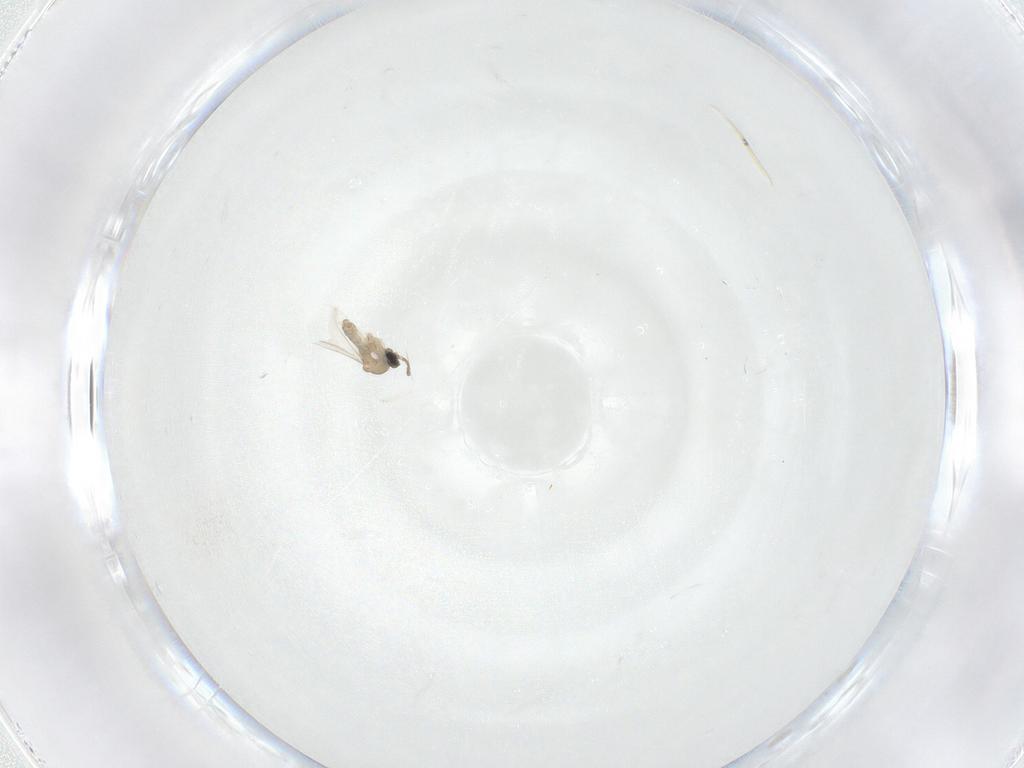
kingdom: Animalia
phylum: Arthropoda
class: Insecta
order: Diptera
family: Cecidomyiidae
